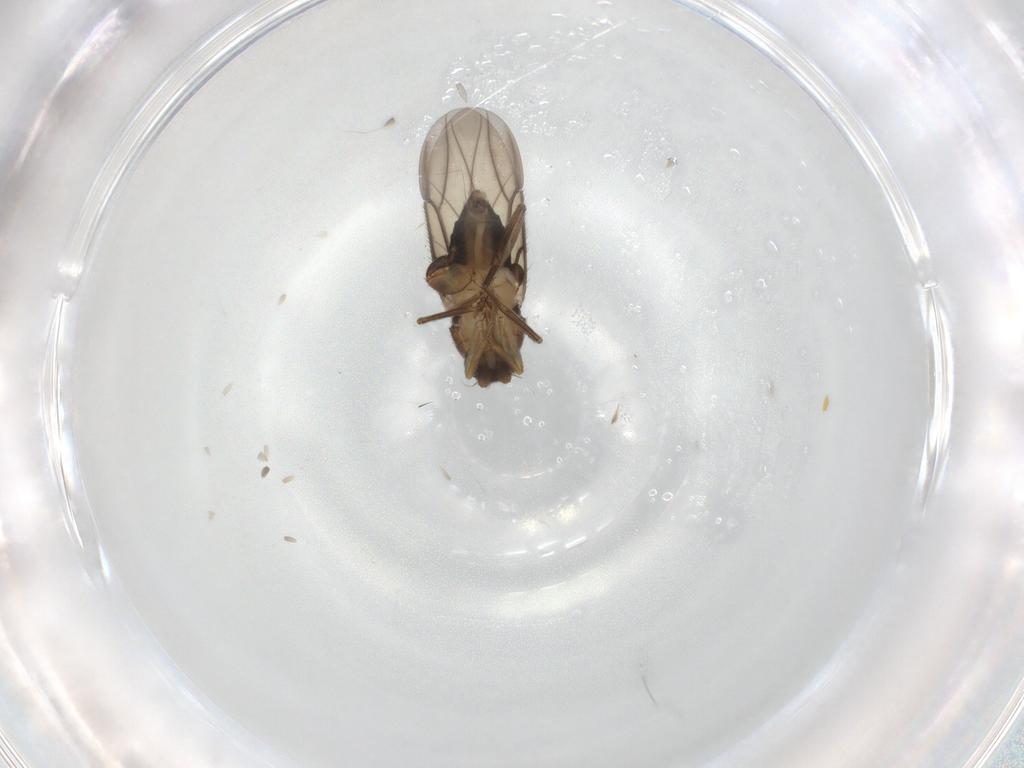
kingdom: Animalia
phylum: Arthropoda
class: Insecta
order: Diptera
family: Phoridae
